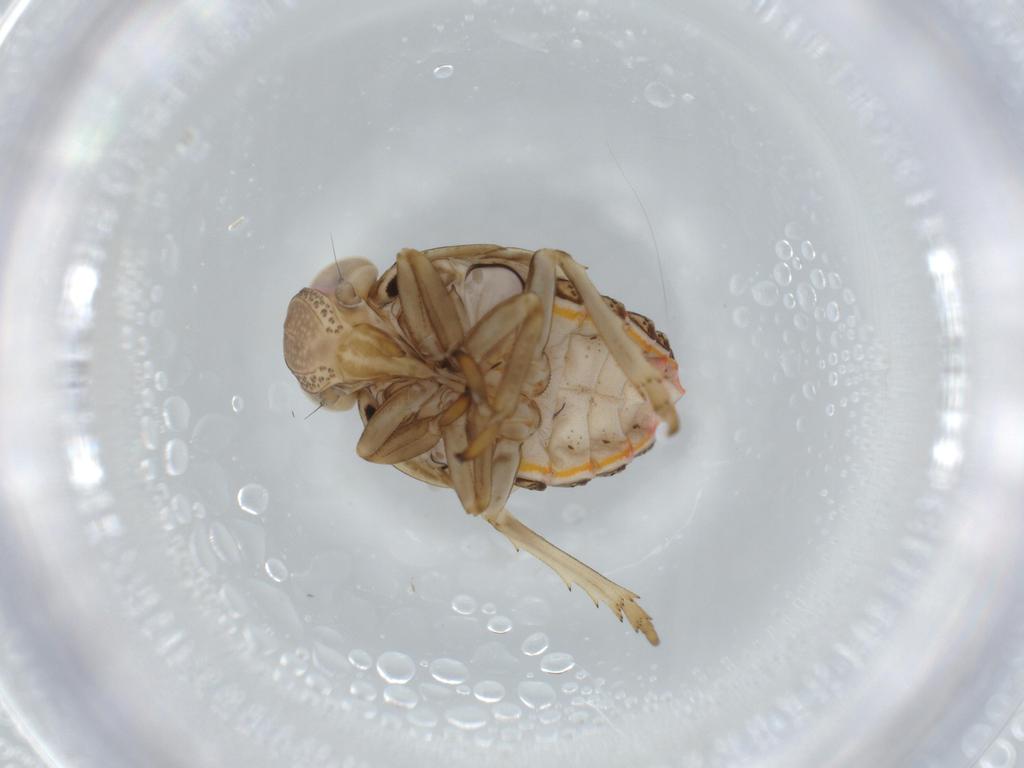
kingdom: Animalia
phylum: Arthropoda
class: Insecta
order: Hemiptera
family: Issidae
